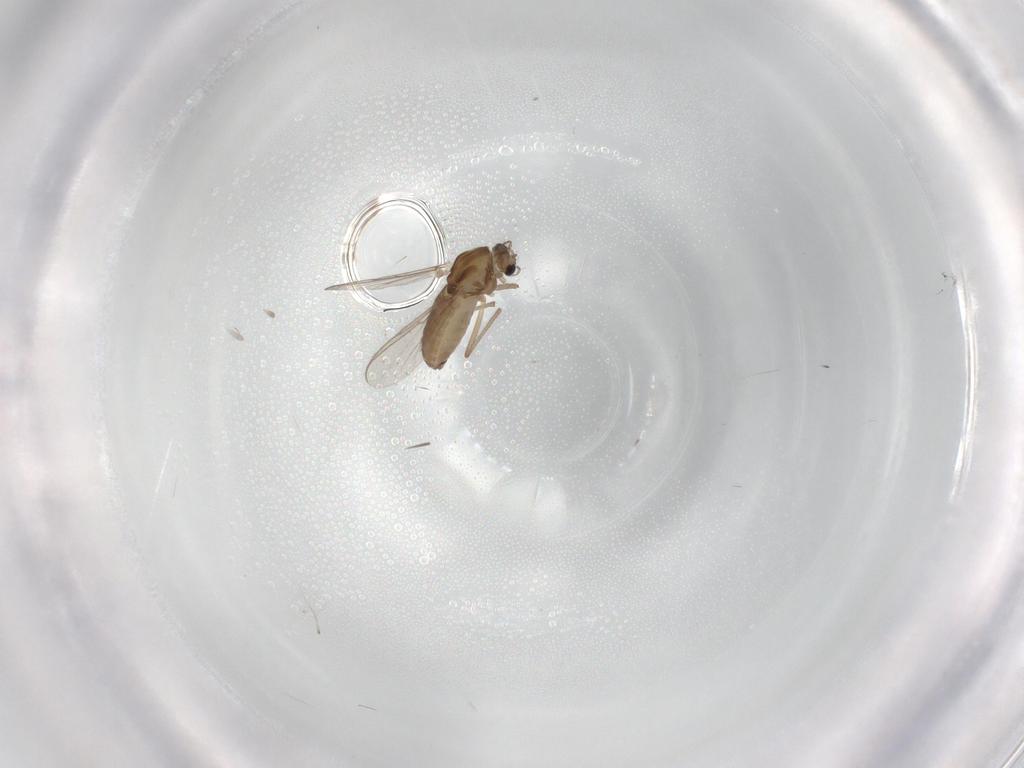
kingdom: Animalia
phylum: Arthropoda
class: Insecta
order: Diptera
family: Chironomidae
